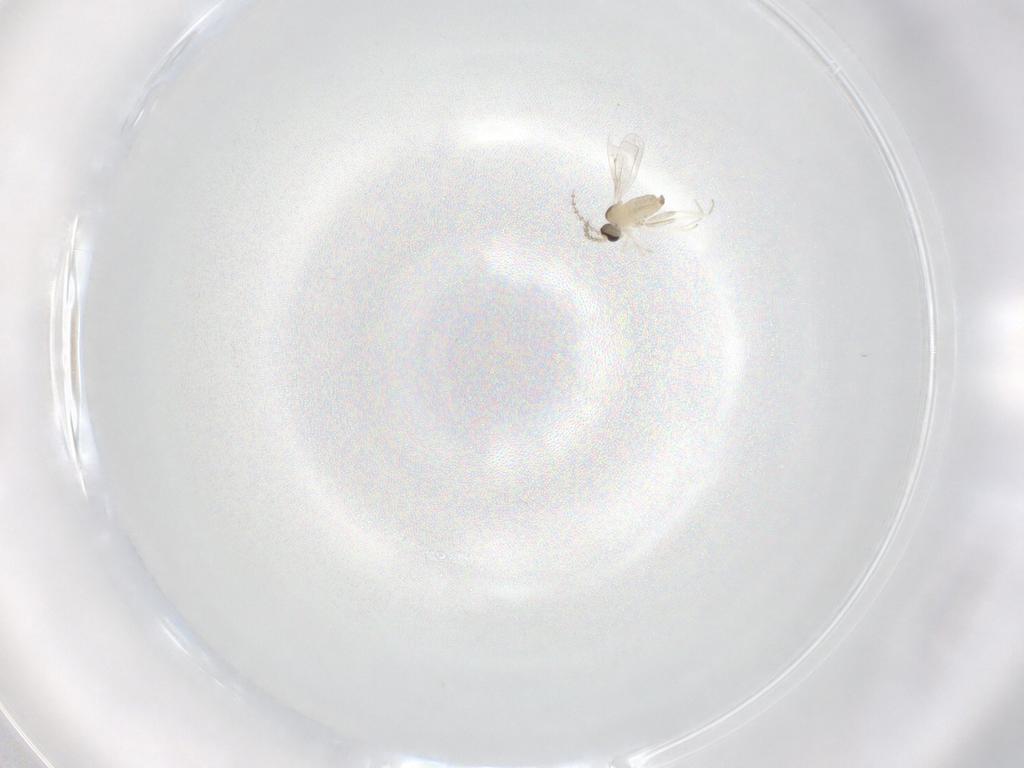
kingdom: Animalia
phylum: Arthropoda
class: Insecta
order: Diptera
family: Cecidomyiidae
